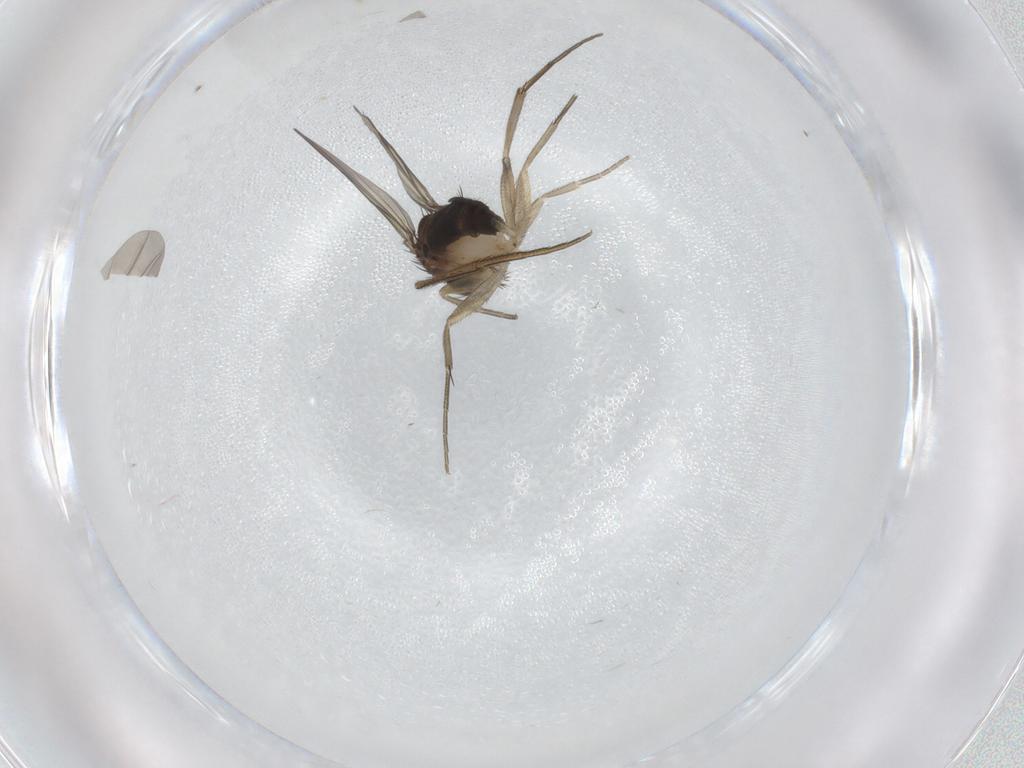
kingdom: Animalia
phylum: Arthropoda
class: Insecta
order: Diptera
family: Phoridae
